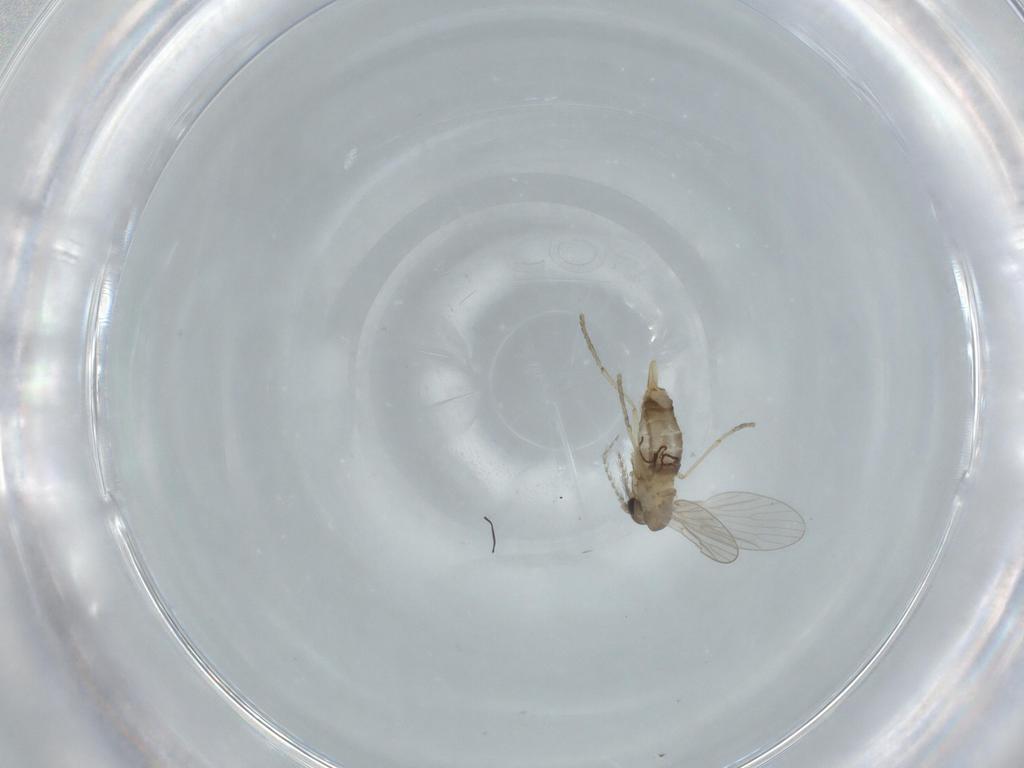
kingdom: Animalia
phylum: Arthropoda
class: Insecta
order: Diptera
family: Psychodidae
